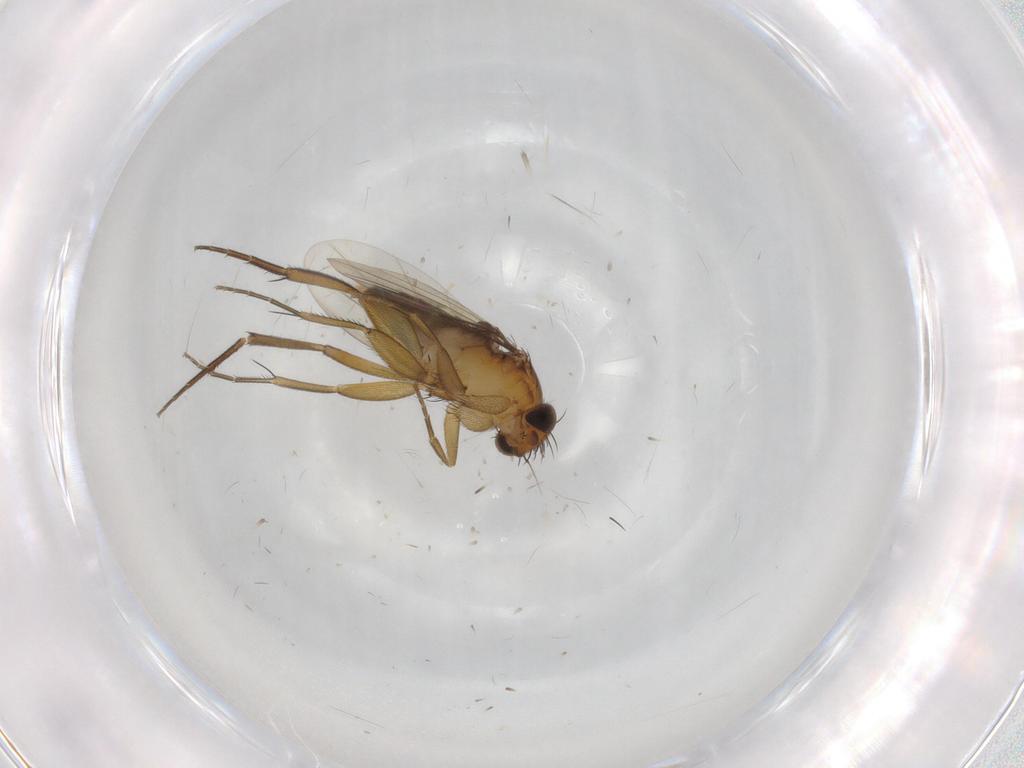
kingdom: Animalia
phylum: Arthropoda
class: Insecta
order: Diptera
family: Phoridae
